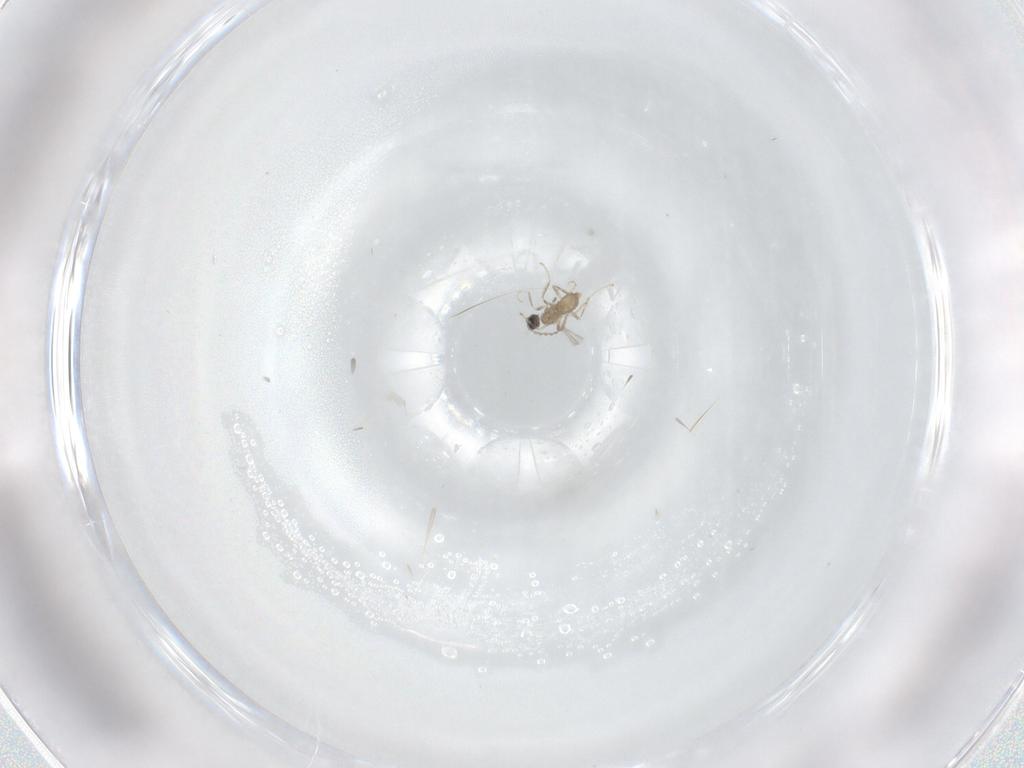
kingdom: Animalia
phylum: Arthropoda
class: Insecta
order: Diptera
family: Cecidomyiidae
